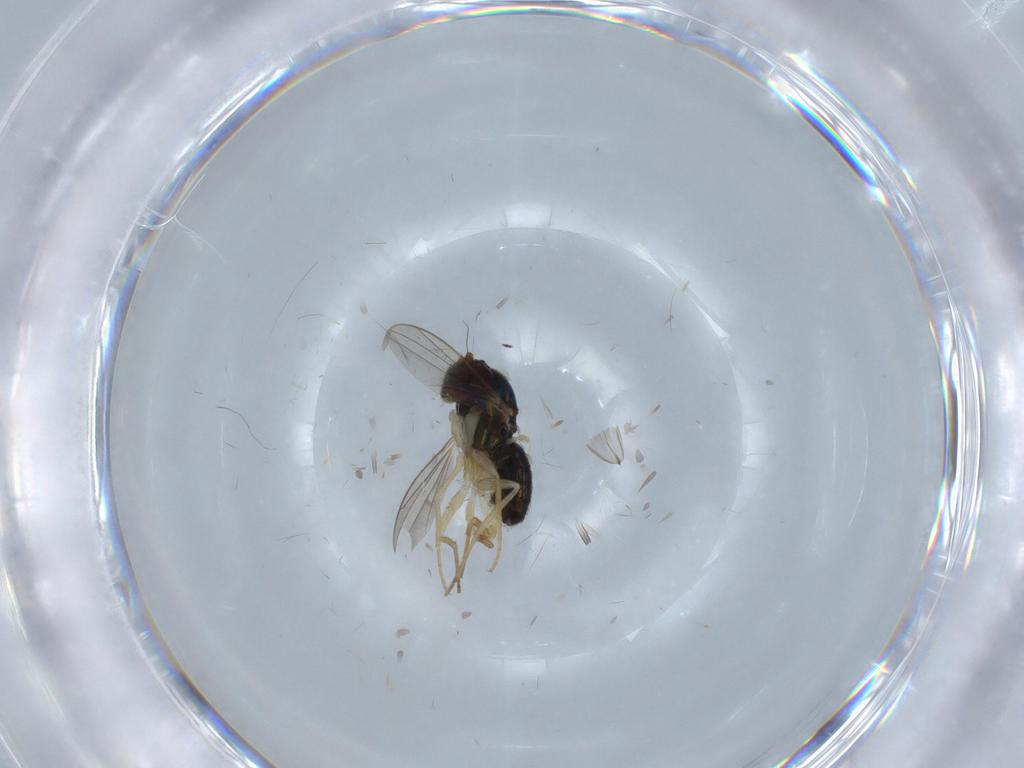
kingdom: Animalia
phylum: Arthropoda
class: Insecta
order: Diptera
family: Dolichopodidae
